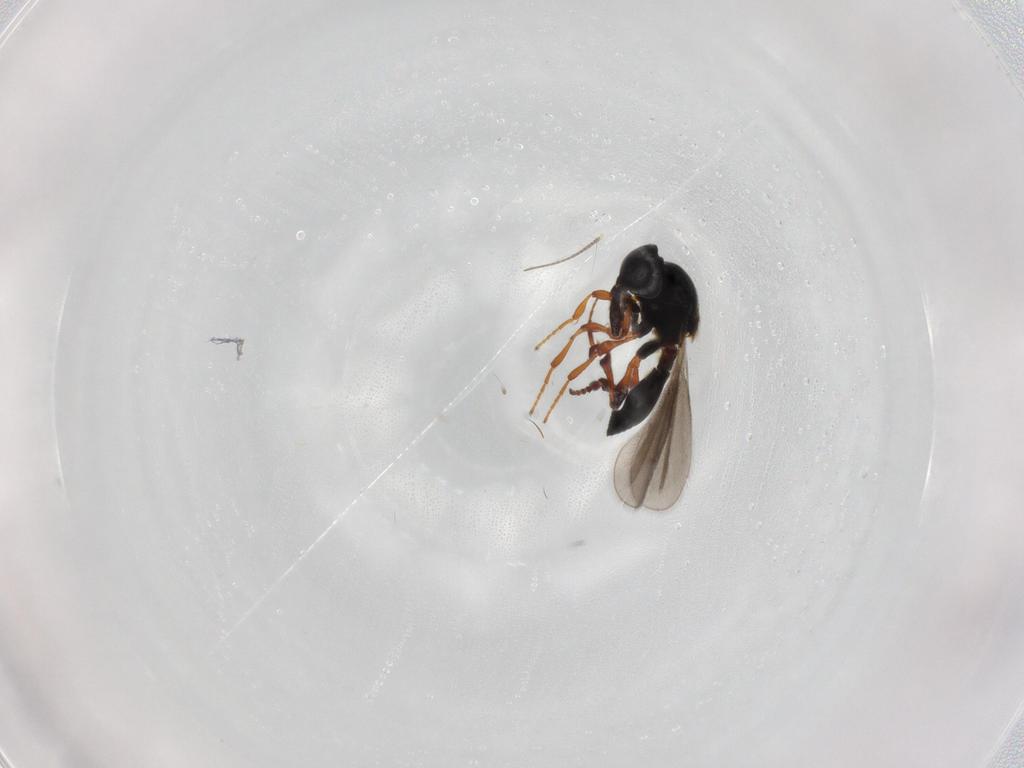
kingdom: Animalia
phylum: Arthropoda
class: Insecta
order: Hymenoptera
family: Platygastridae
